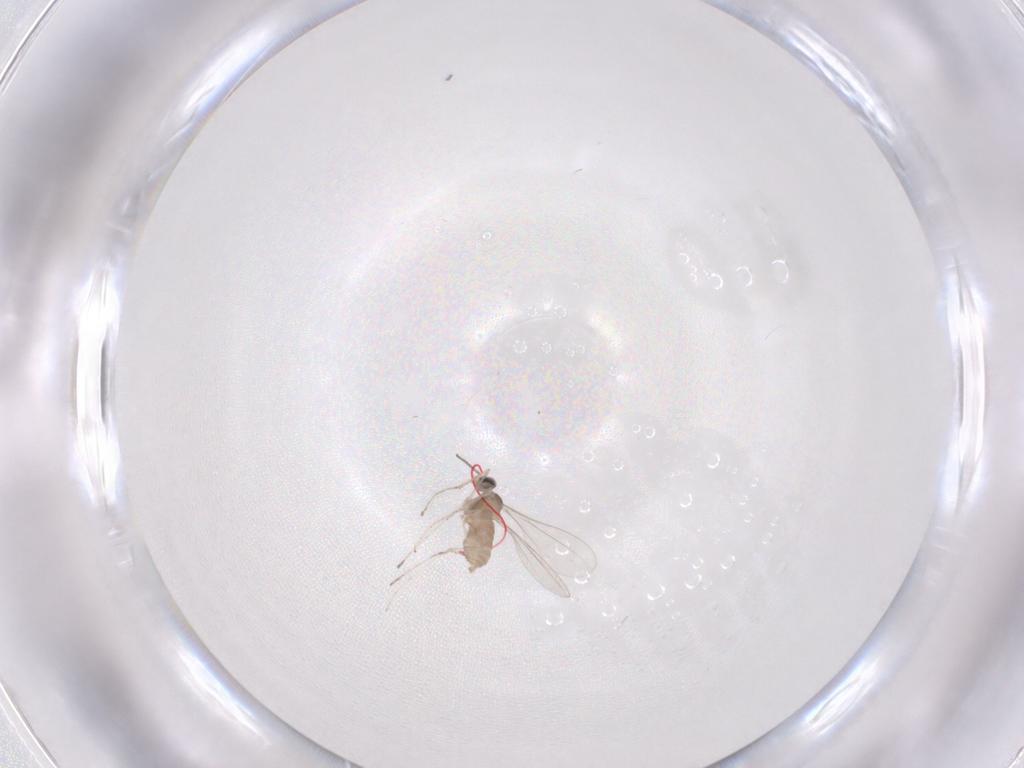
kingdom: Animalia
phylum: Arthropoda
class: Insecta
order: Diptera
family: Cecidomyiidae
